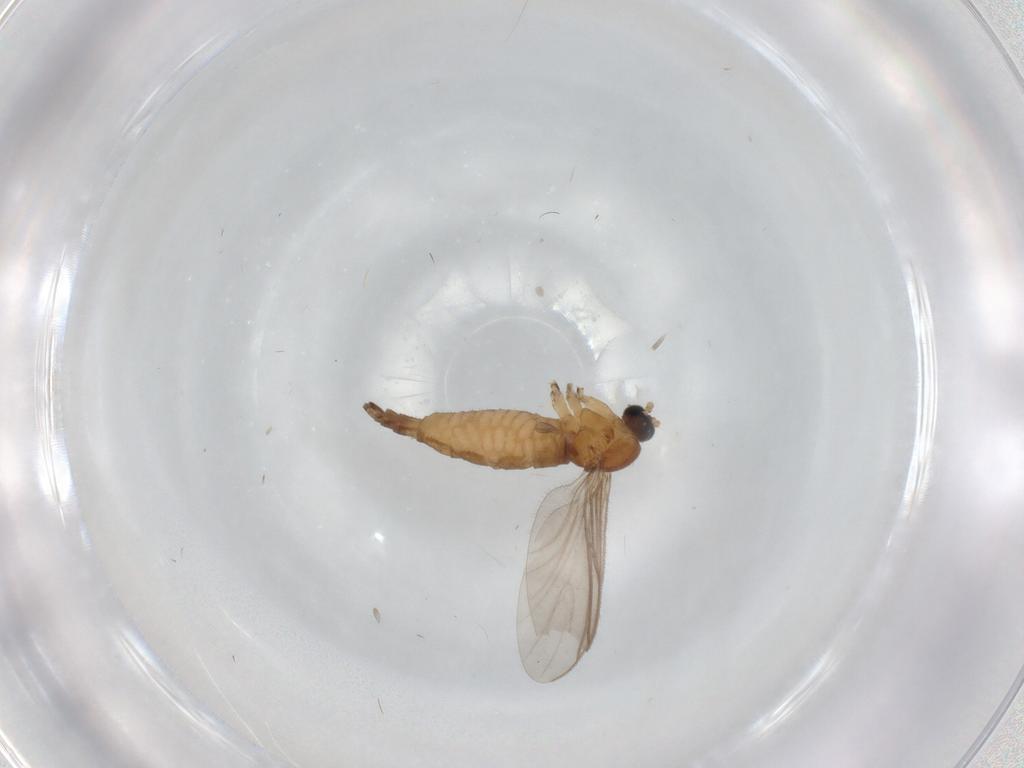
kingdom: Animalia
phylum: Arthropoda
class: Insecta
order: Diptera
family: Sciaridae
